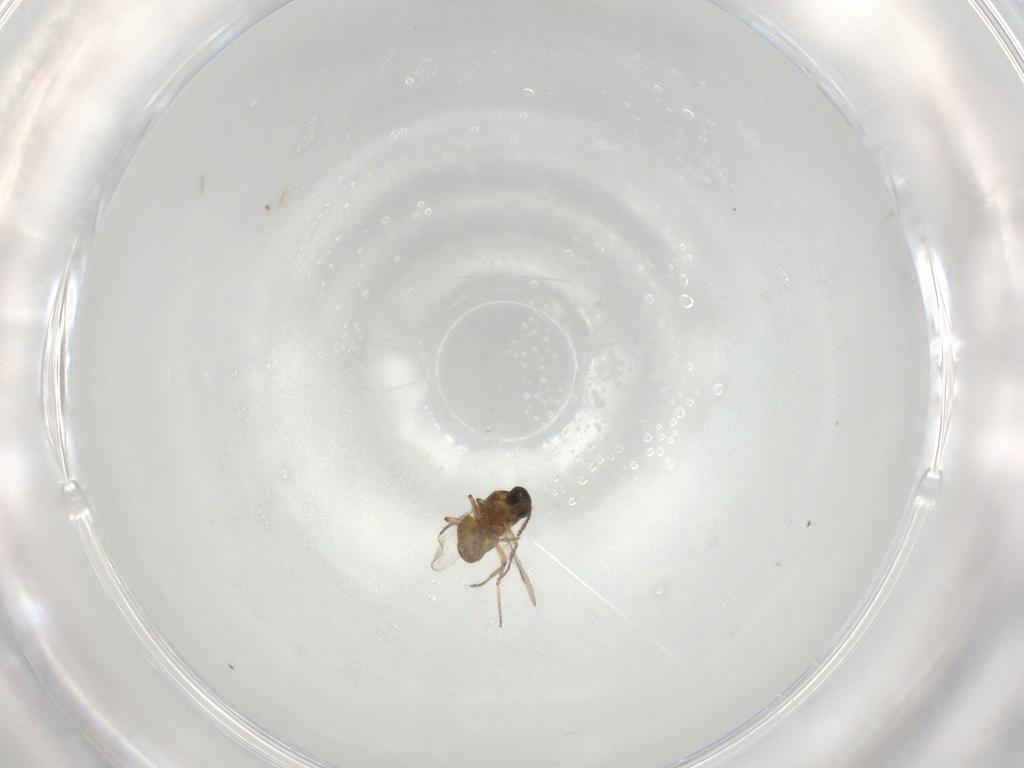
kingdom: Animalia
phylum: Arthropoda
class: Insecta
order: Diptera
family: Ceratopogonidae
